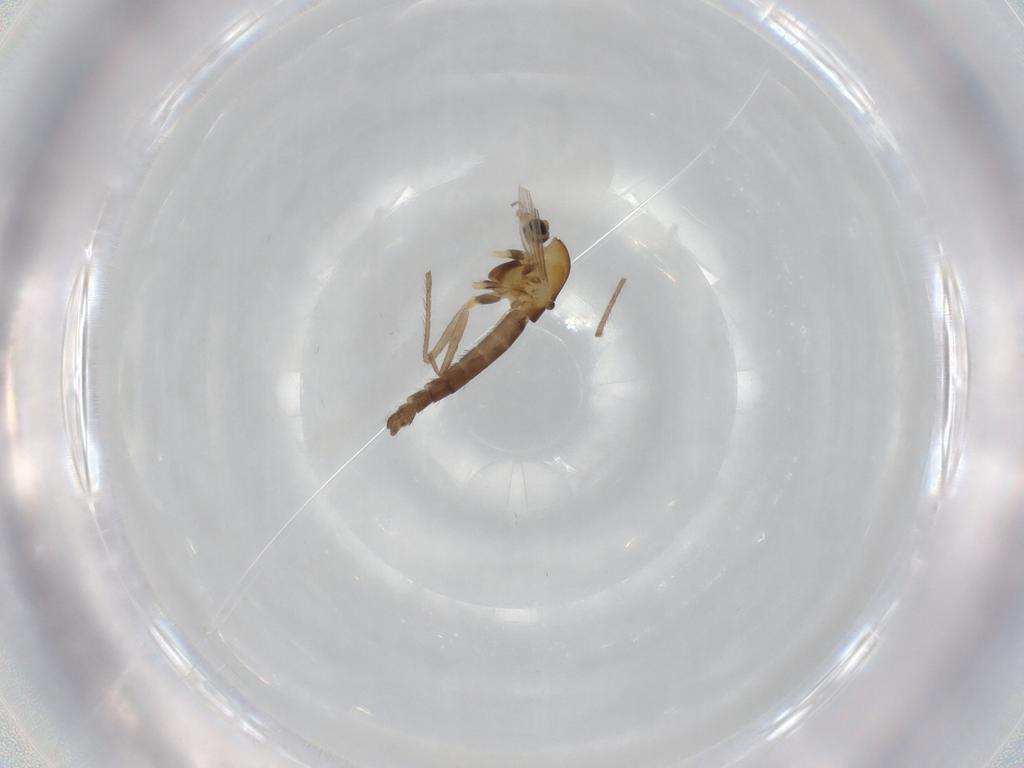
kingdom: Animalia
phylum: Arthropoda
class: Insecta
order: Diptera
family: Chironomidae
